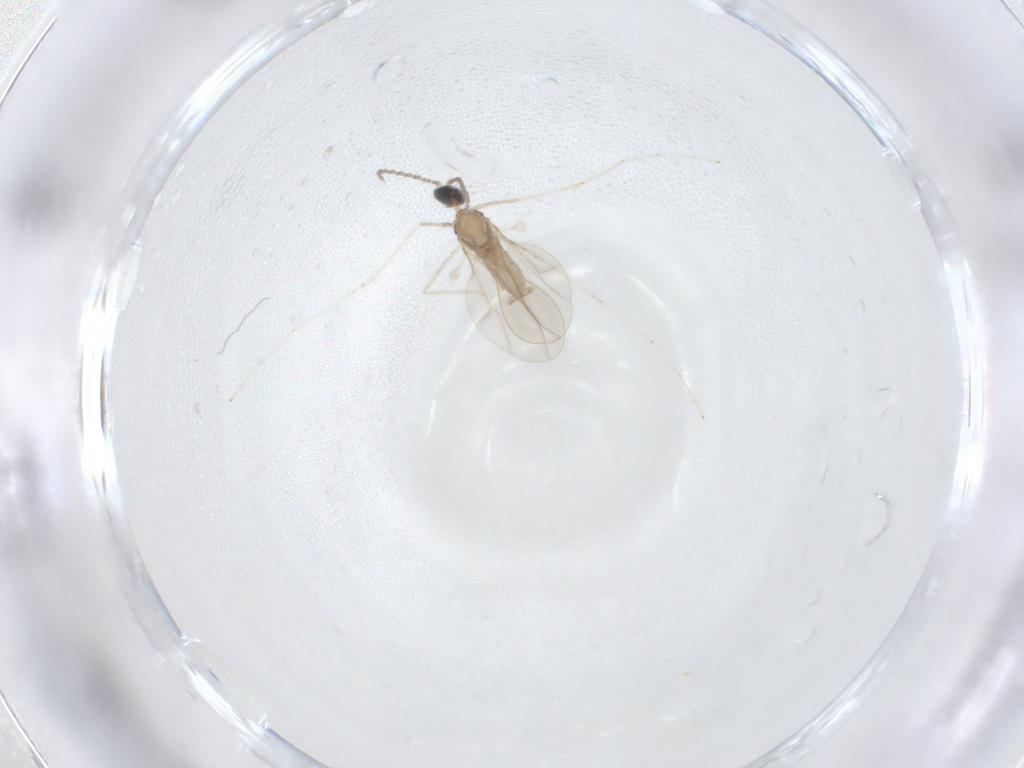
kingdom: Animalia
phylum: Arthropoda
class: Insecta
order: Diptera
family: Cecidomyiidae
